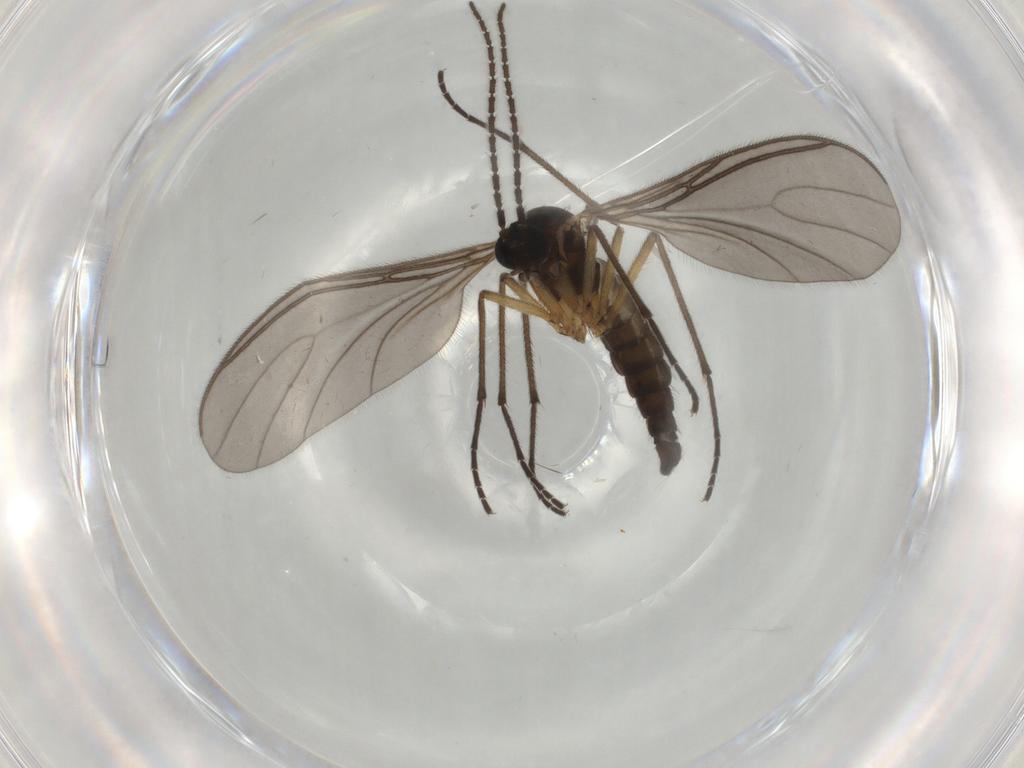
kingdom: Animalia
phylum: Arthropoda
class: Insecta
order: Diptera
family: Sciaridae
